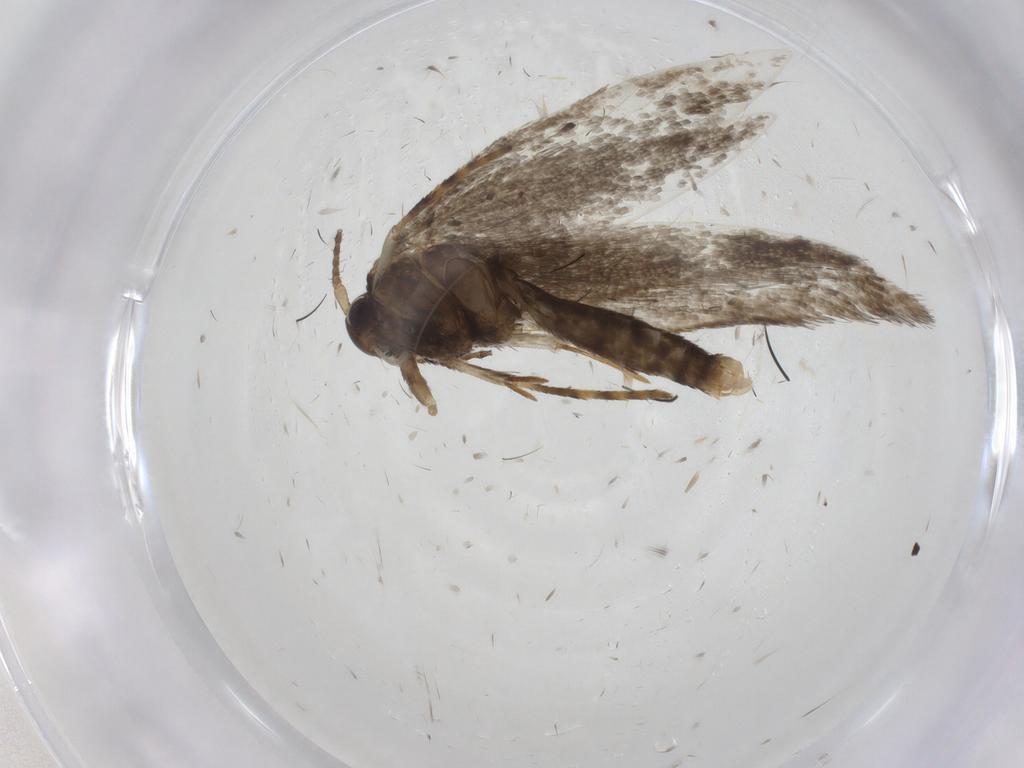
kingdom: Animalia
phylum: Arthropoda
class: Insecta
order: Lepidoptera
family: Erebidae
